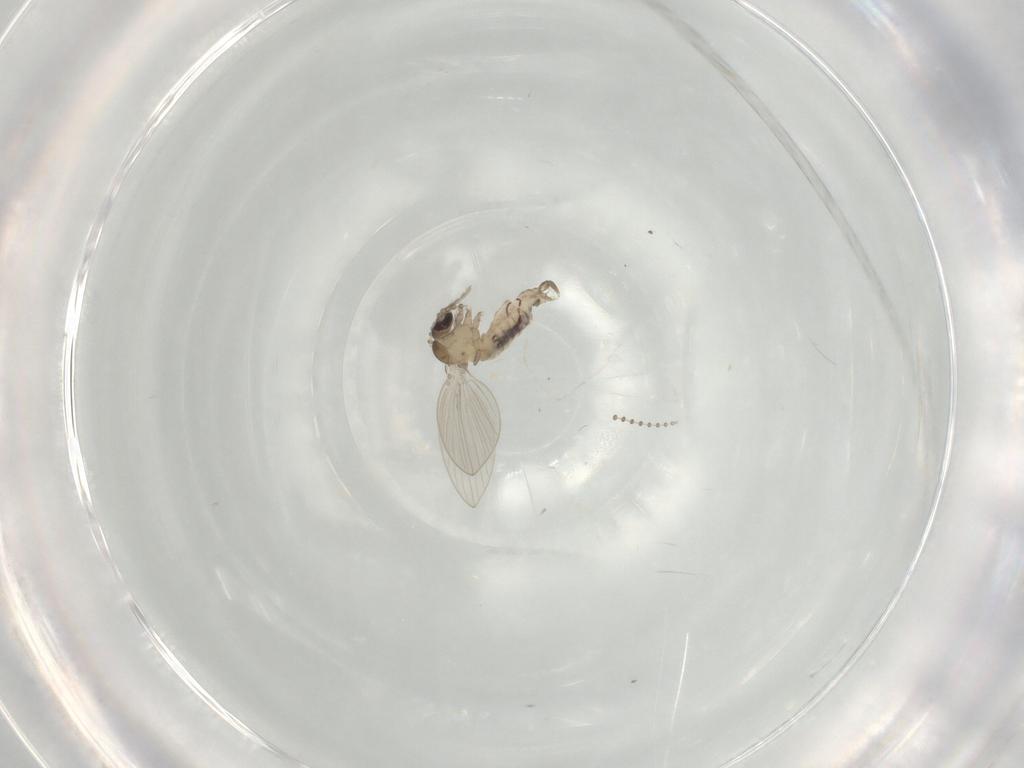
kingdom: Animalia
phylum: Arthropoda
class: Insecta
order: Diptera
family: Psychodidae
